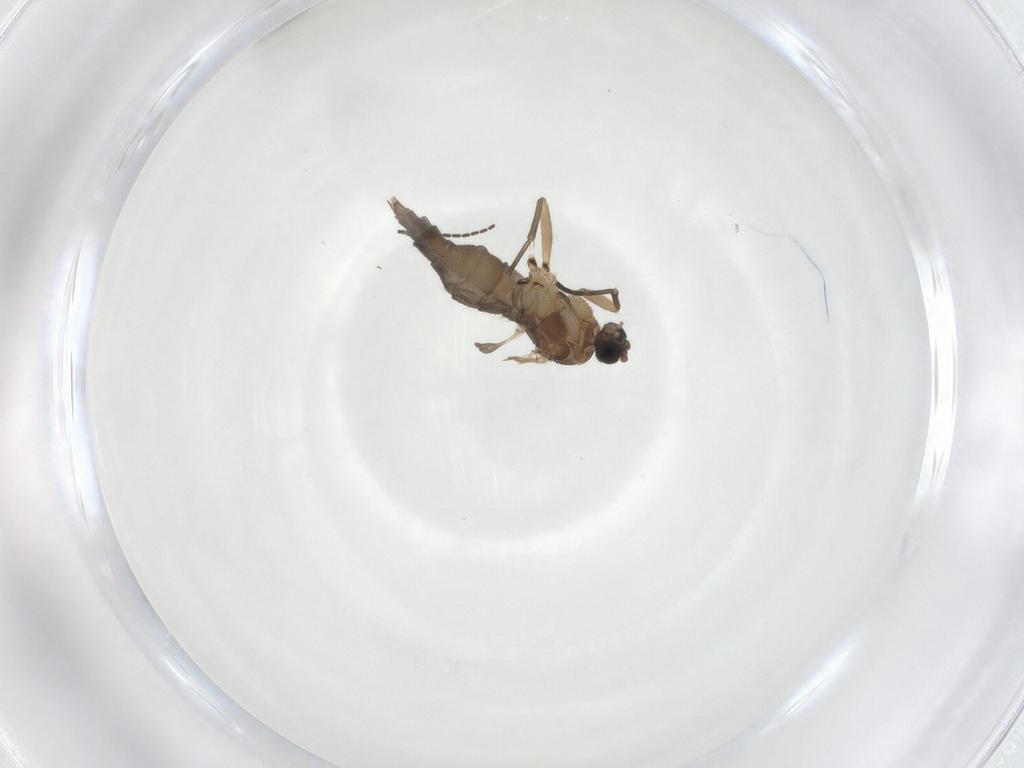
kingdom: Animalia
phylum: Arthropoda
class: Insecta
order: Diptera
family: Sciaridae
